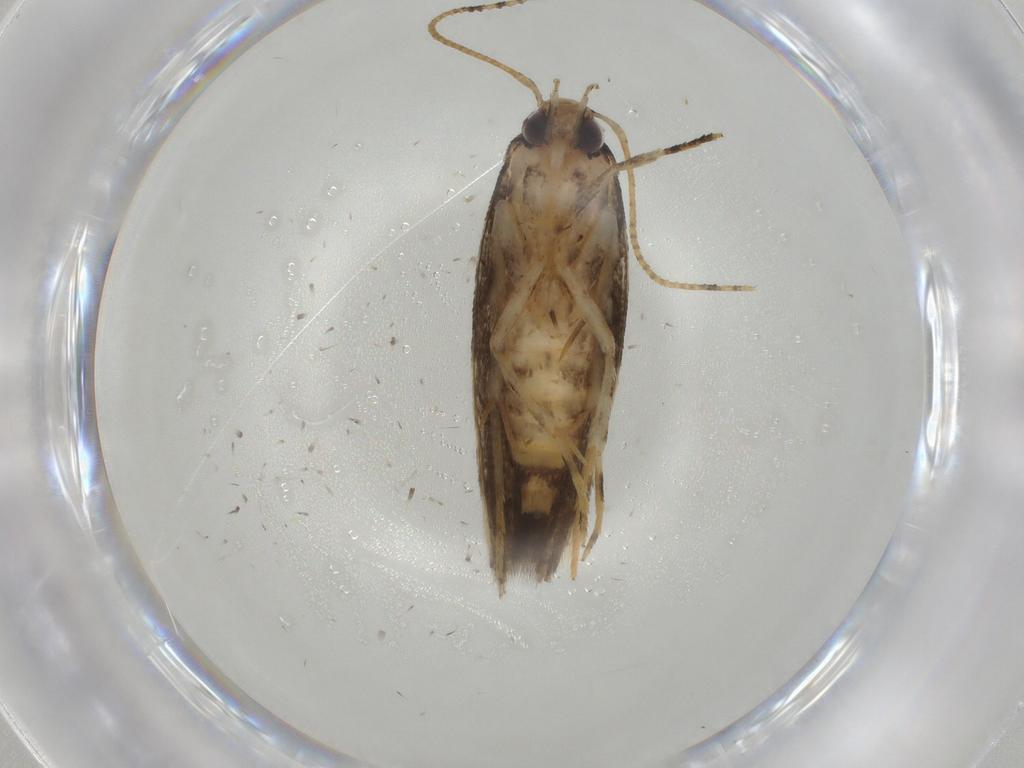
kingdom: Animalia
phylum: Arthropoda
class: Insecta
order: Lepidoptera
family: Cosmopterigidae
